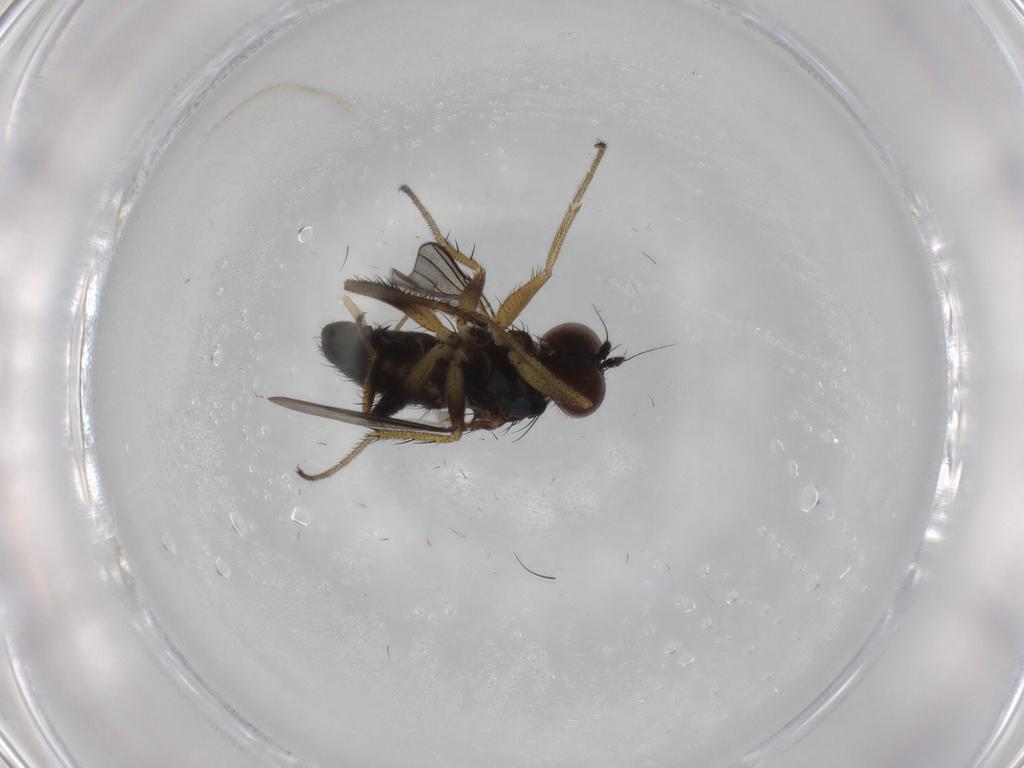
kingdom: Animalia
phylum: Arthropoda
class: Insecta
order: Diptera
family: Dolichopodidae
